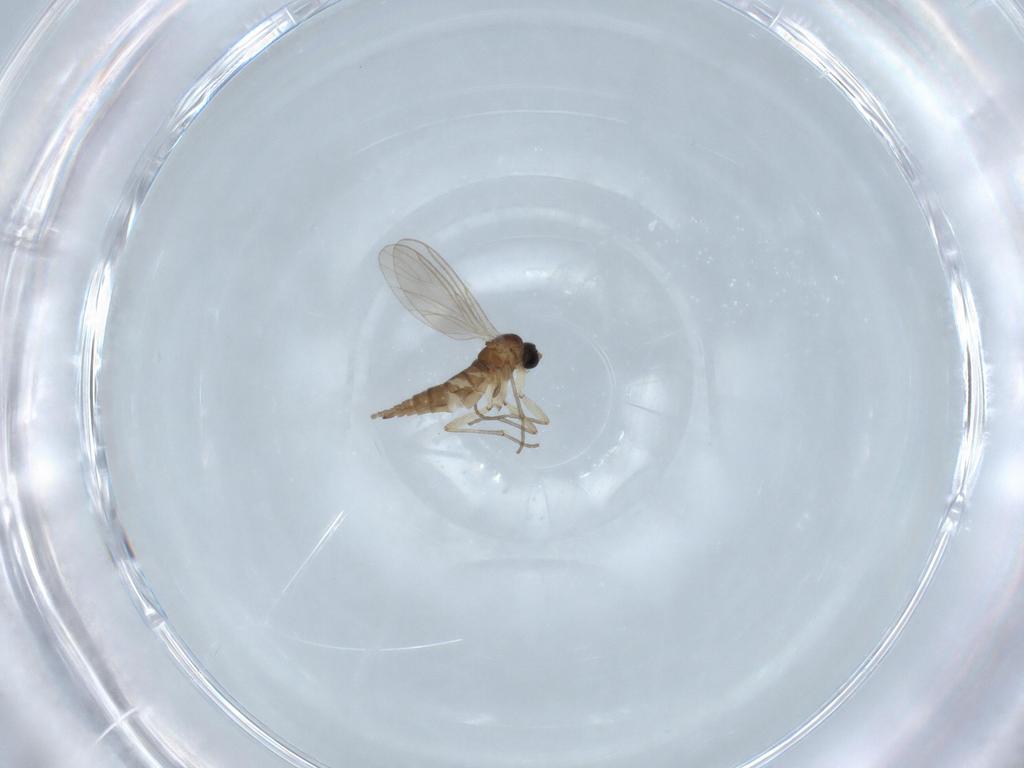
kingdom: Animalia
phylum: Arthropoda
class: Insecta
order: Diptera
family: Sciaridae
